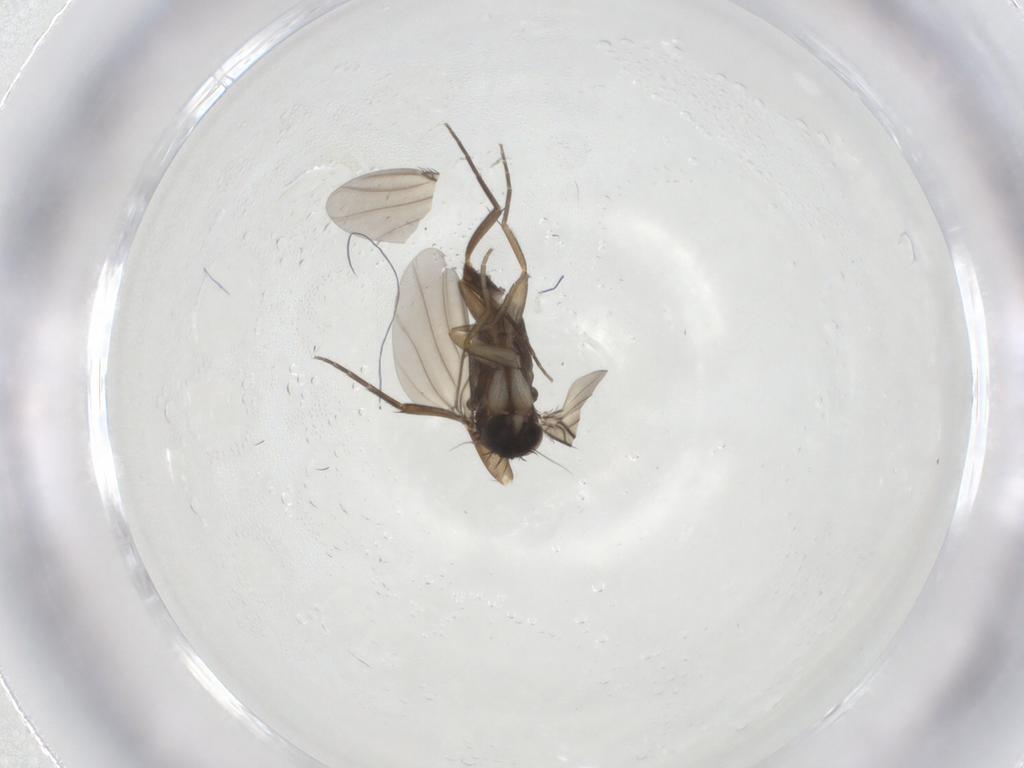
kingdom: Animalia
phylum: Arthropoda
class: Insecta
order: Diptera
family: Phoridae
